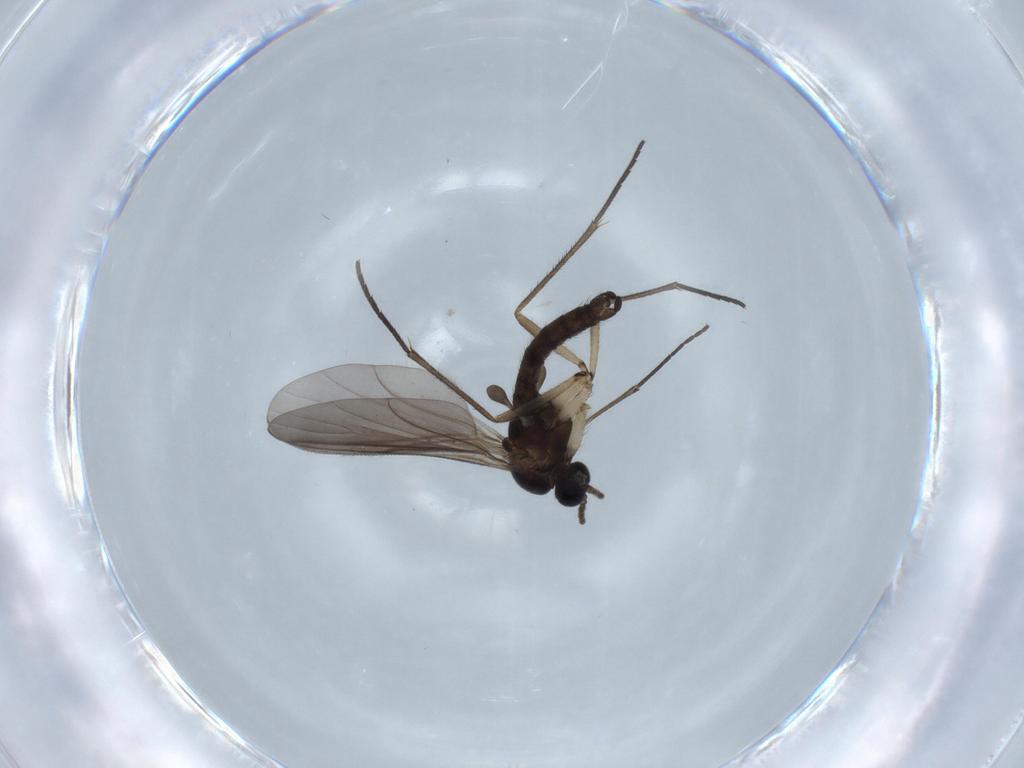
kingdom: Animalia
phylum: Arthropoda
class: Insecta
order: Diptera
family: Sciaridae
